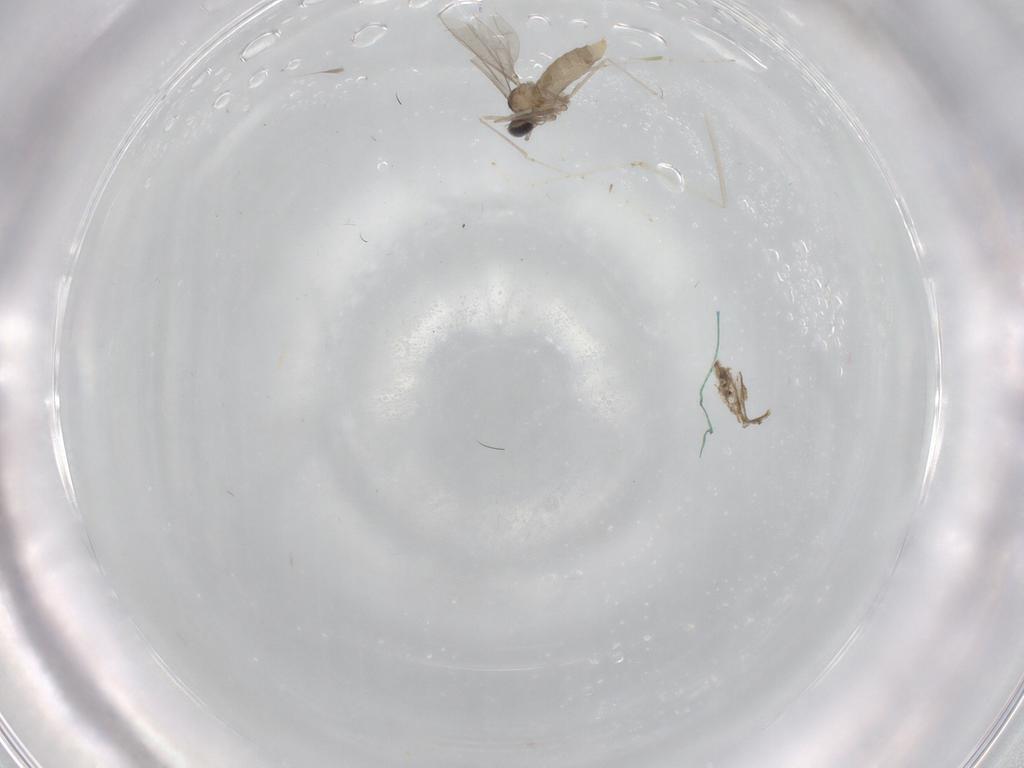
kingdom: Animalia
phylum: Arthropoda
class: Insecta
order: Diptera
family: Cecidomyiidae
